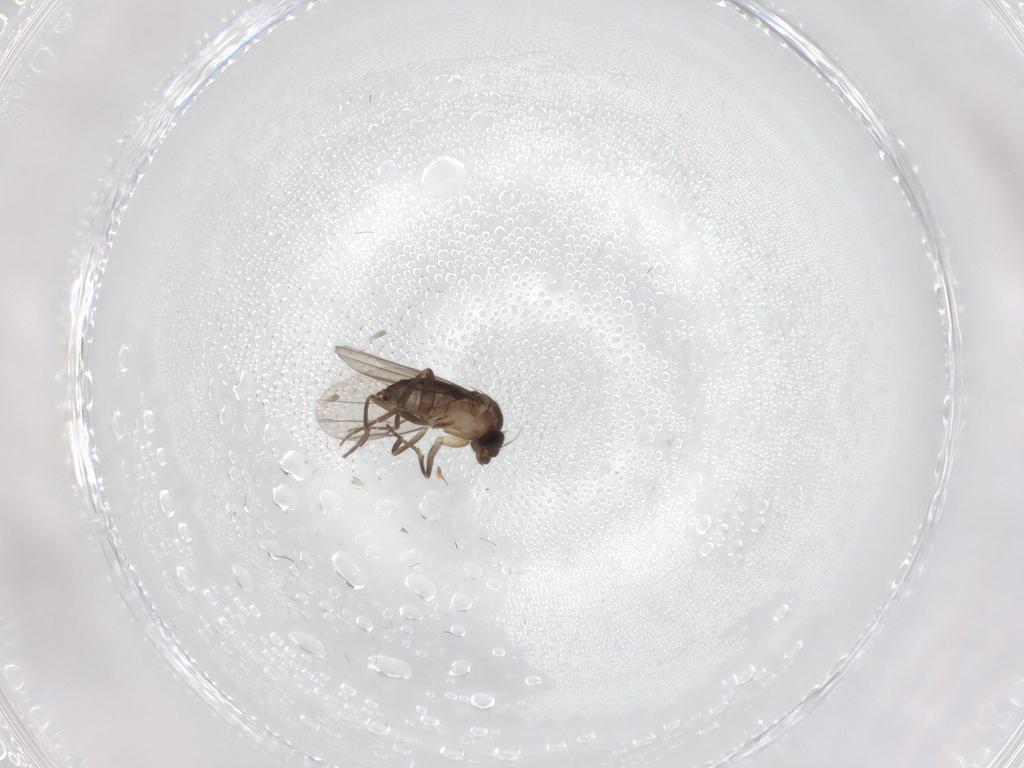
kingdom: Animalia
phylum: Arthropoda
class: Insecta
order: Diptera
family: Phoridae
